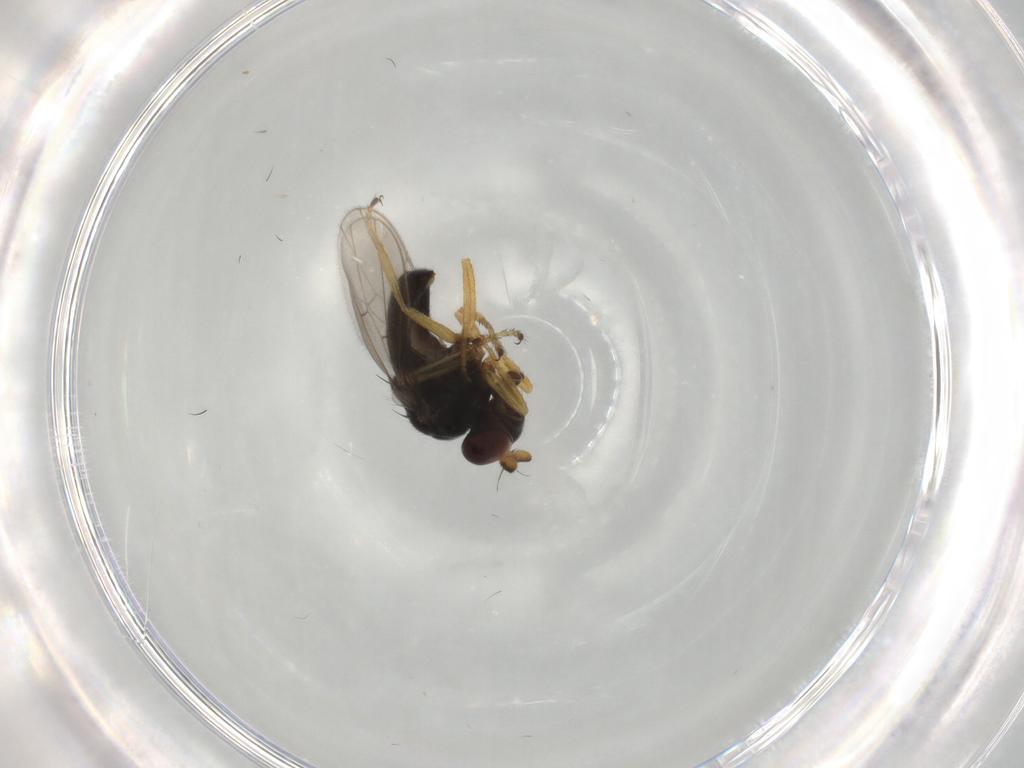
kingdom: Animalia
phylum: Arthropoda
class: Insecta
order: Diptera
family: Ephydridae
